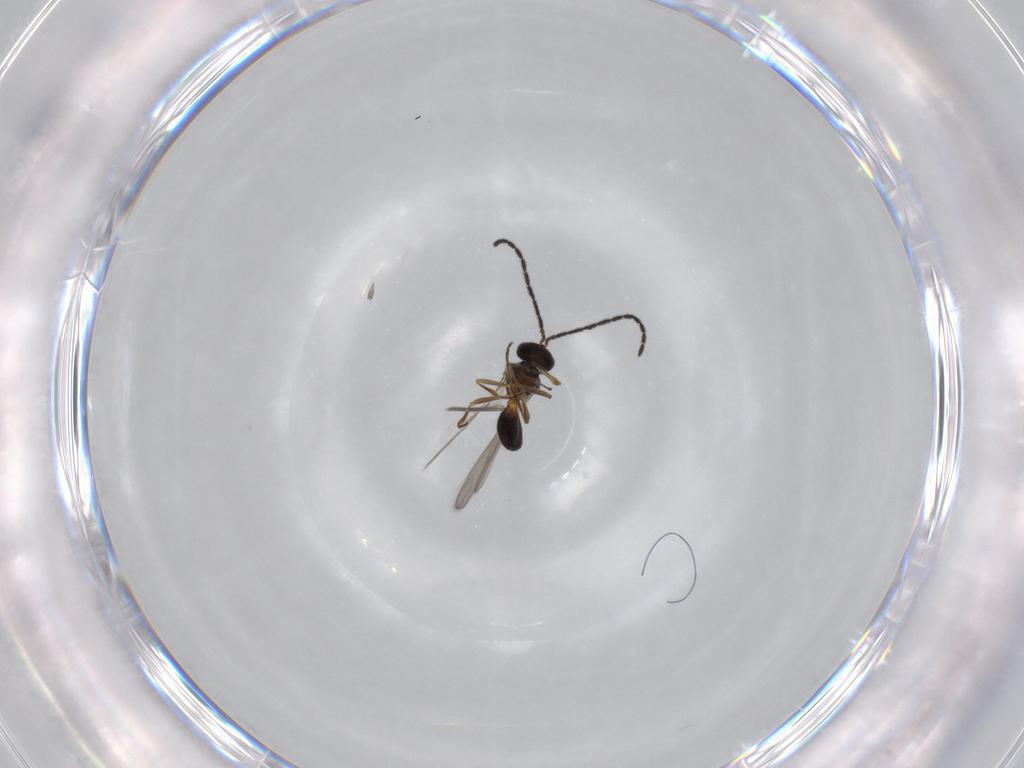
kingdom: Animalia
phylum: Arthropoda
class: Insecta
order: Hymenoptera
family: Scelionidae
